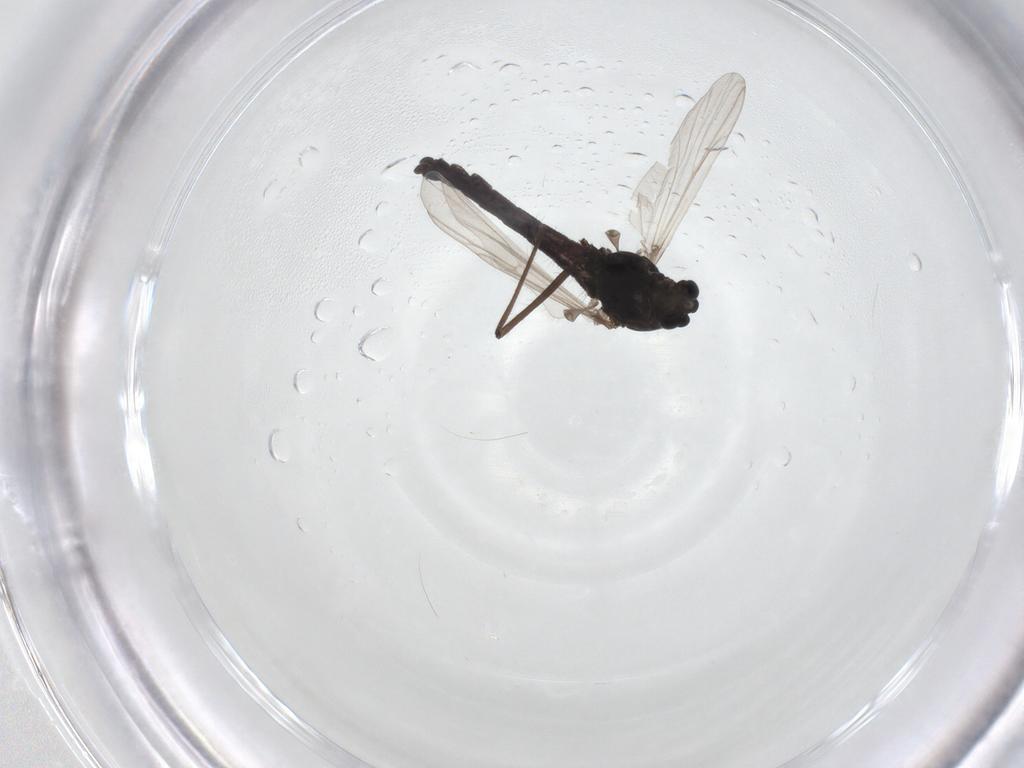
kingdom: Animalia
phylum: Arthropoda
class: Insecta
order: Diptera
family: Chironomidae
